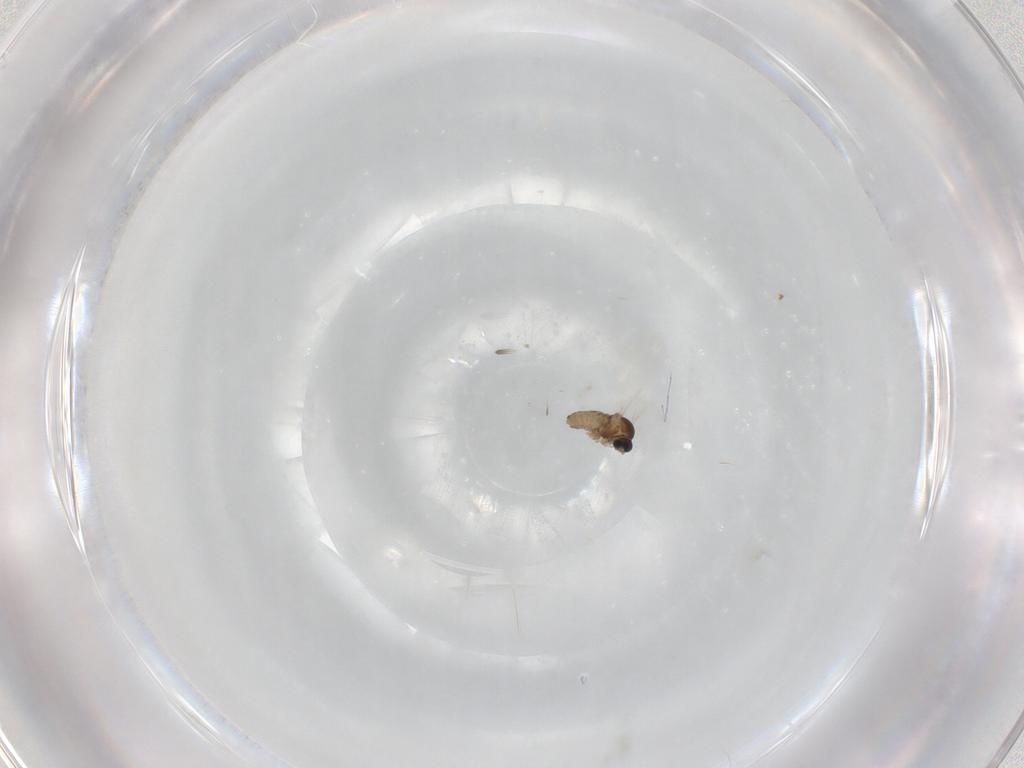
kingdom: Animalia
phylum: Arthropoda
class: Insecta
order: Diptera
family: Cecidomyiidae
